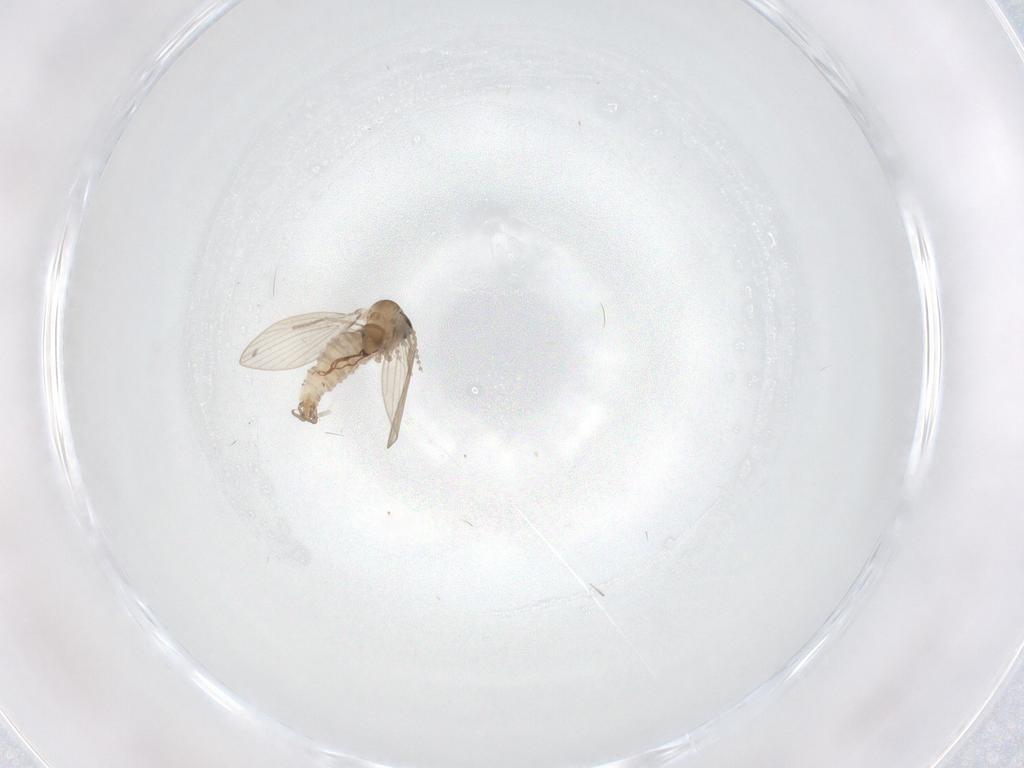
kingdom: Animalia
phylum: Arthropoda
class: Insecta
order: Diptera
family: Psychodidae
